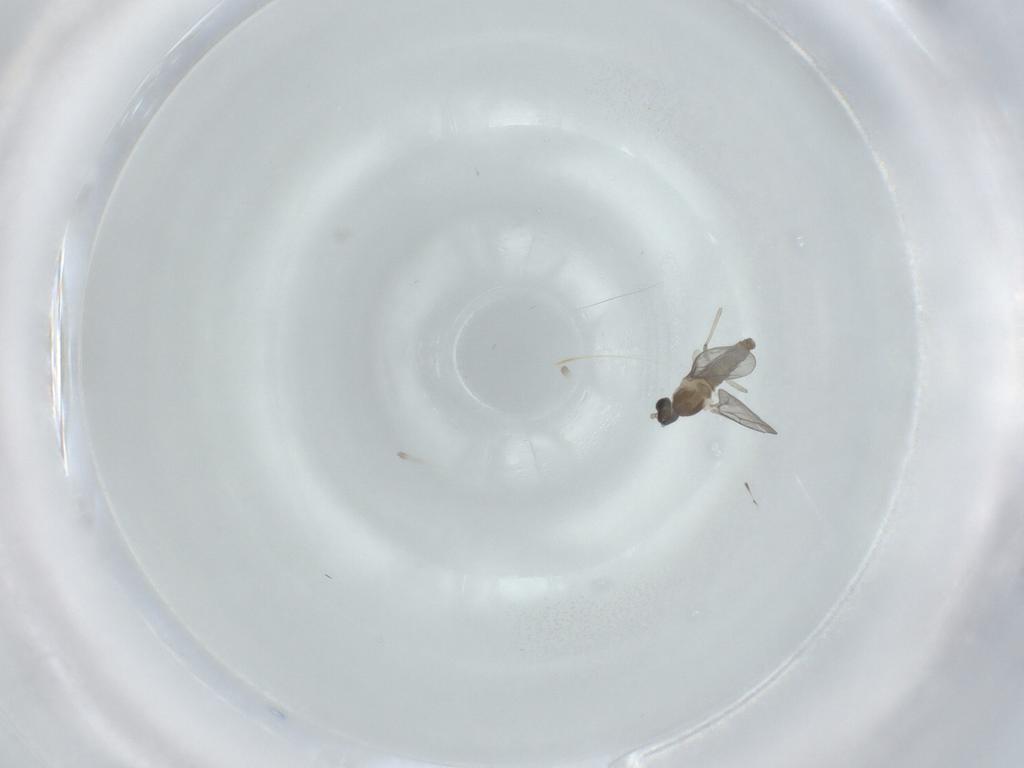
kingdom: Animalia
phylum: Arthropoda
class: Insecta
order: Diptera
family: Cecidomyiidae
